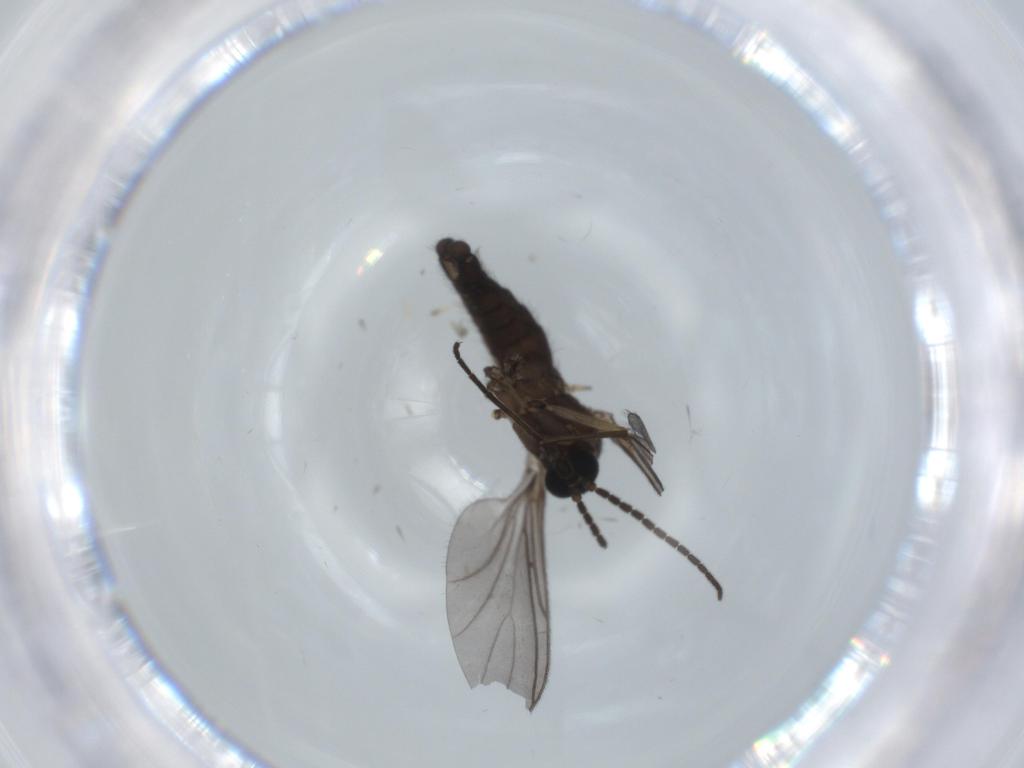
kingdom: Animalia
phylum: Arthropoda
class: Insecta
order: Diptera
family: Sciaridae
